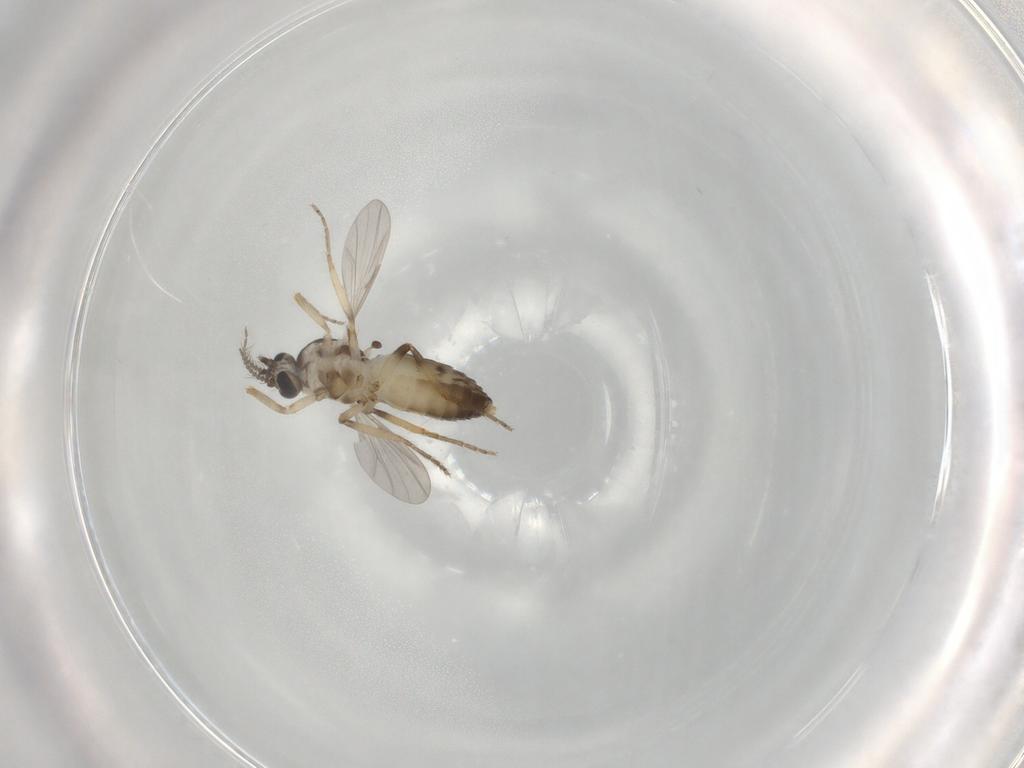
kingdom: Animalia
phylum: Arthropoda
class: Insecta
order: Diptera
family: Ceratopogonidae
